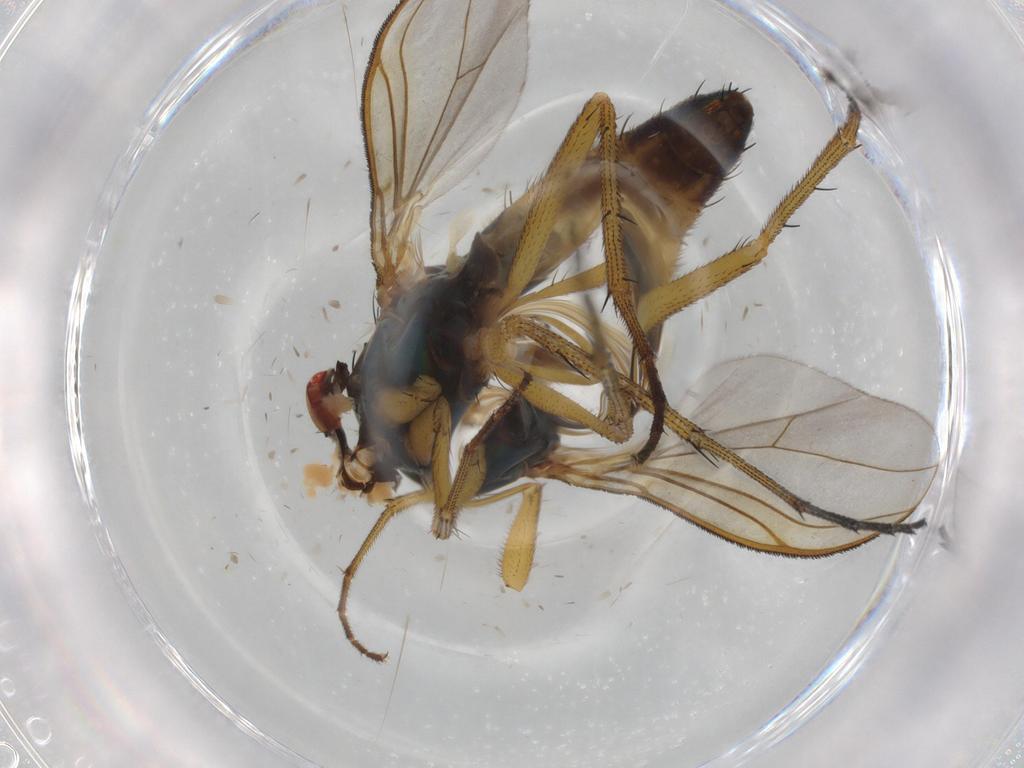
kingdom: Animalia
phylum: Arthropoda
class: Insecta
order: Diptera
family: Cecidomyiidae
